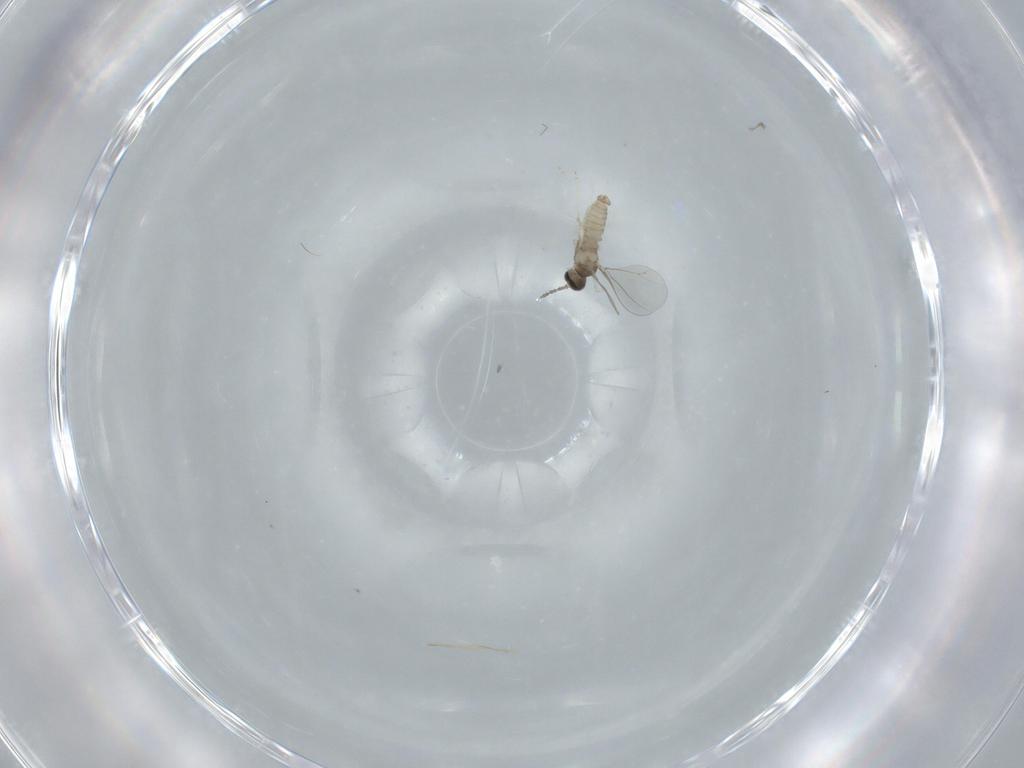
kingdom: Animalia
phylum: Arthropoda
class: Insecta
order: Diptera
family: Cecidomyiidae
